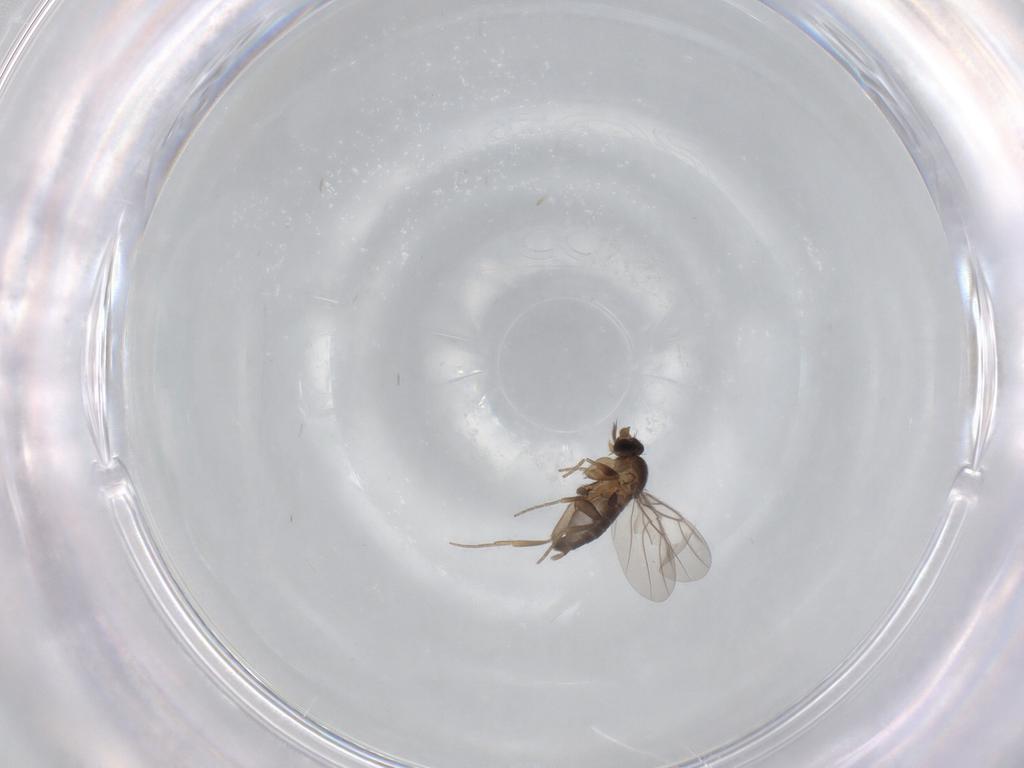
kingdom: Animalia
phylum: Arthropoda
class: Insecta
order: Diptera
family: Phoridae
